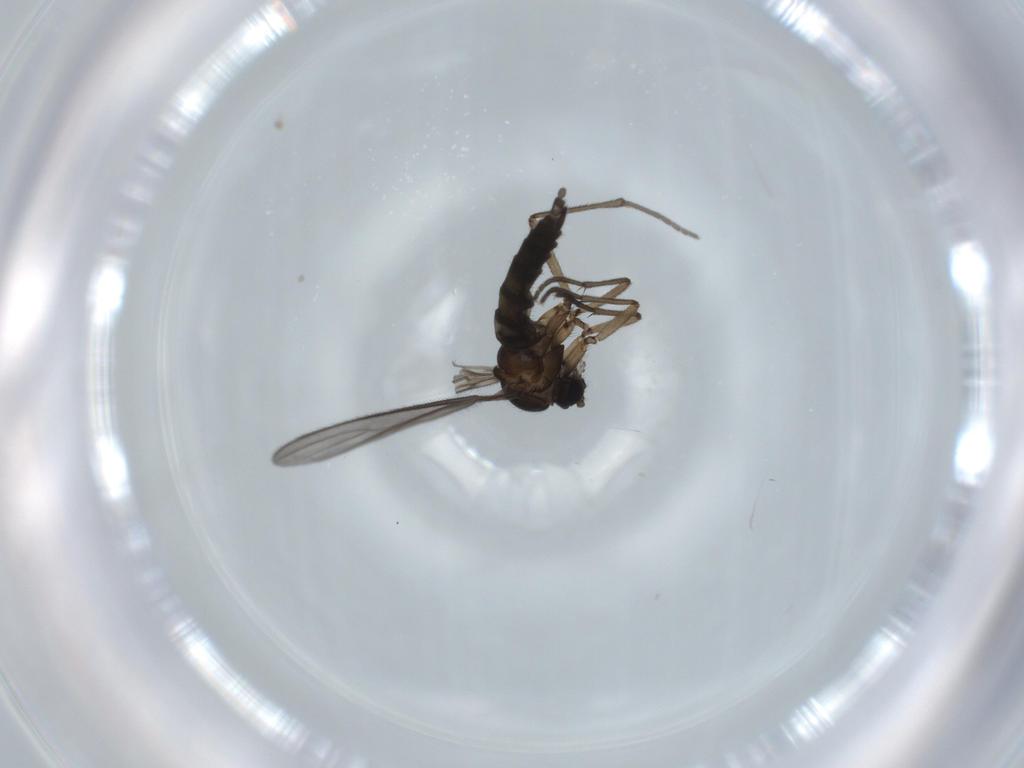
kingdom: Animalia
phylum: Arthropoda
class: Insecta
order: Diptera
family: Sciaridae
